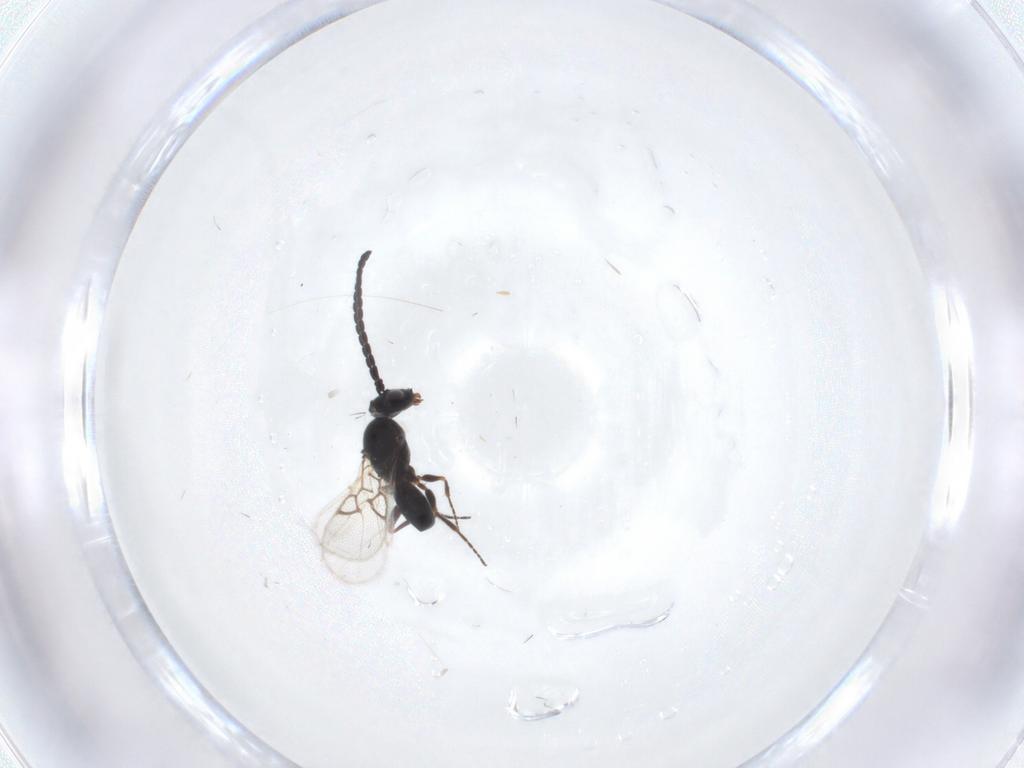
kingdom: Animalia
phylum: Arthropoda
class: Insecta
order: Hymenoptera
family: Figitidae
